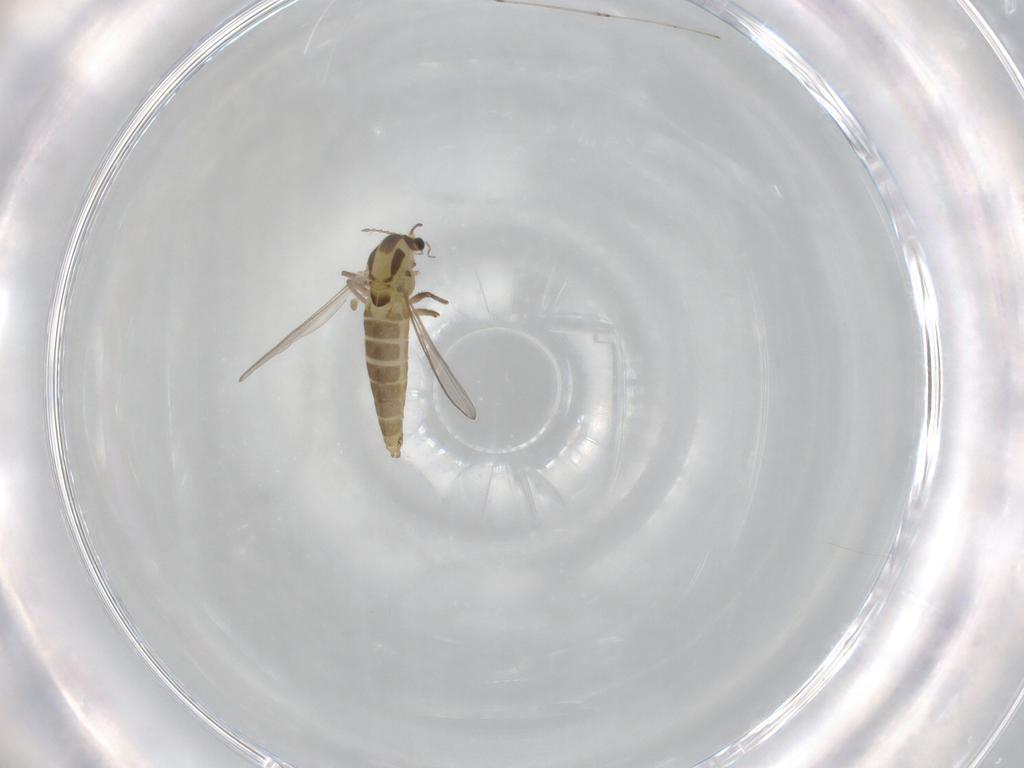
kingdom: Animalia
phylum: Arthropoda
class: Insecta
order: Diptera
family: Chironomidae
